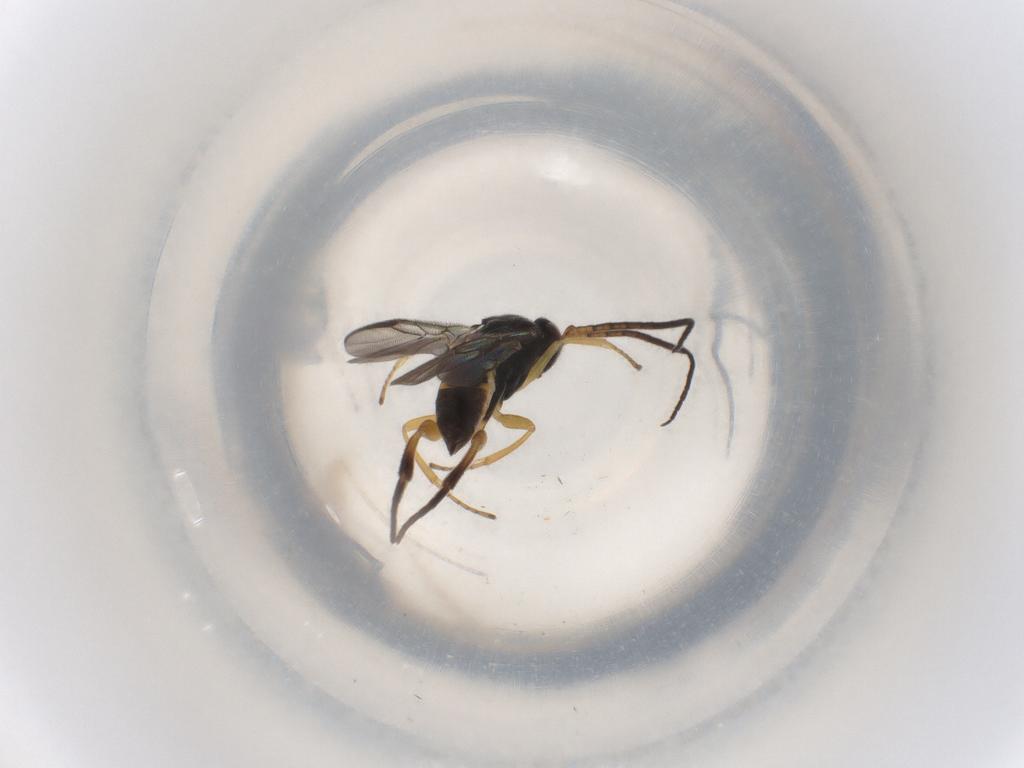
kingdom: Animalia
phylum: Arthropoda
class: Insecta
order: Hymenoptera
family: Braconidae
